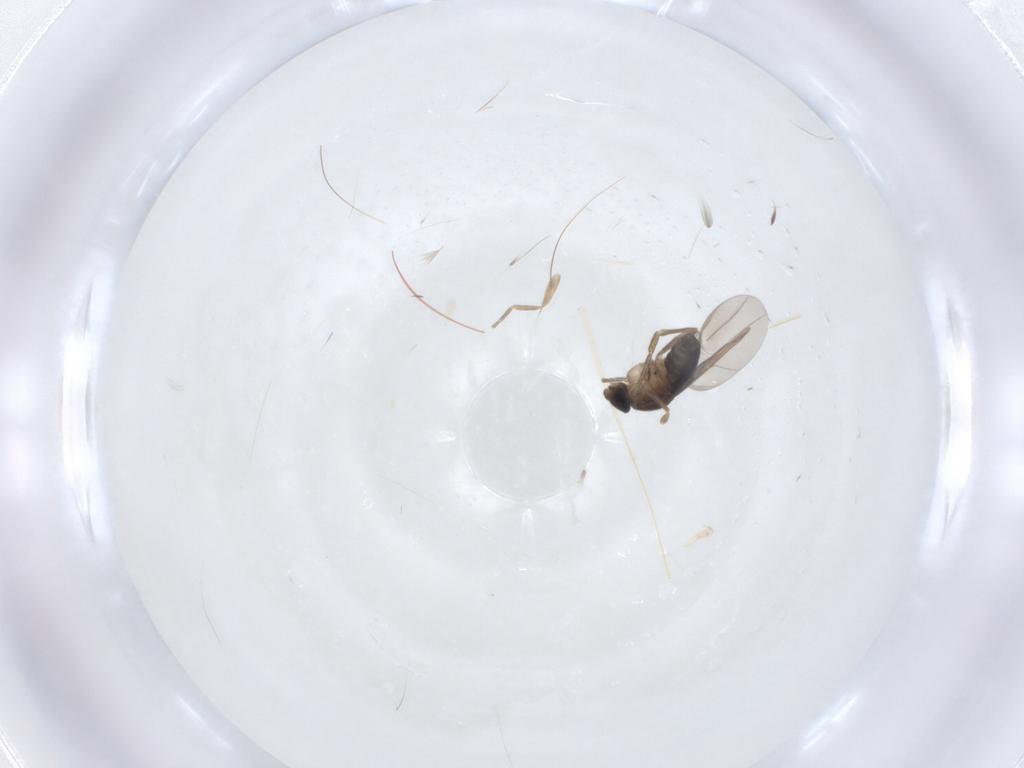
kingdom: Animalia
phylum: Arthropoda
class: Insecta
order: Diptera
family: Phoridae
